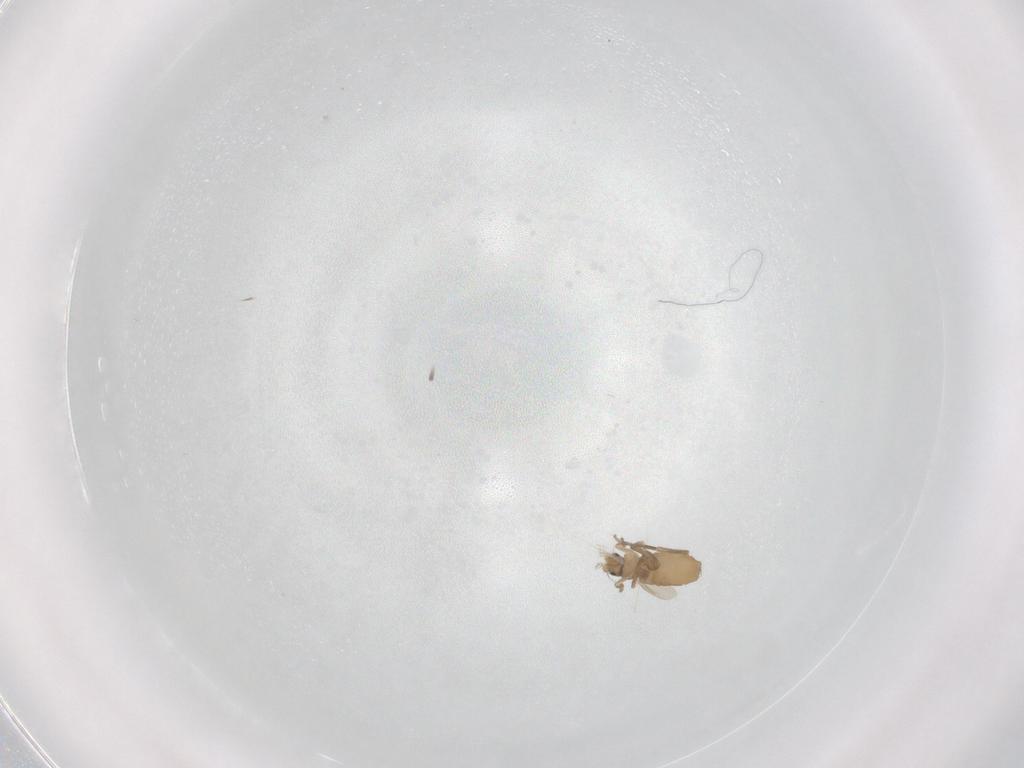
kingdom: Animalia
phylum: Arthropoda
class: Insecta
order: Diptera
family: Phoridae
